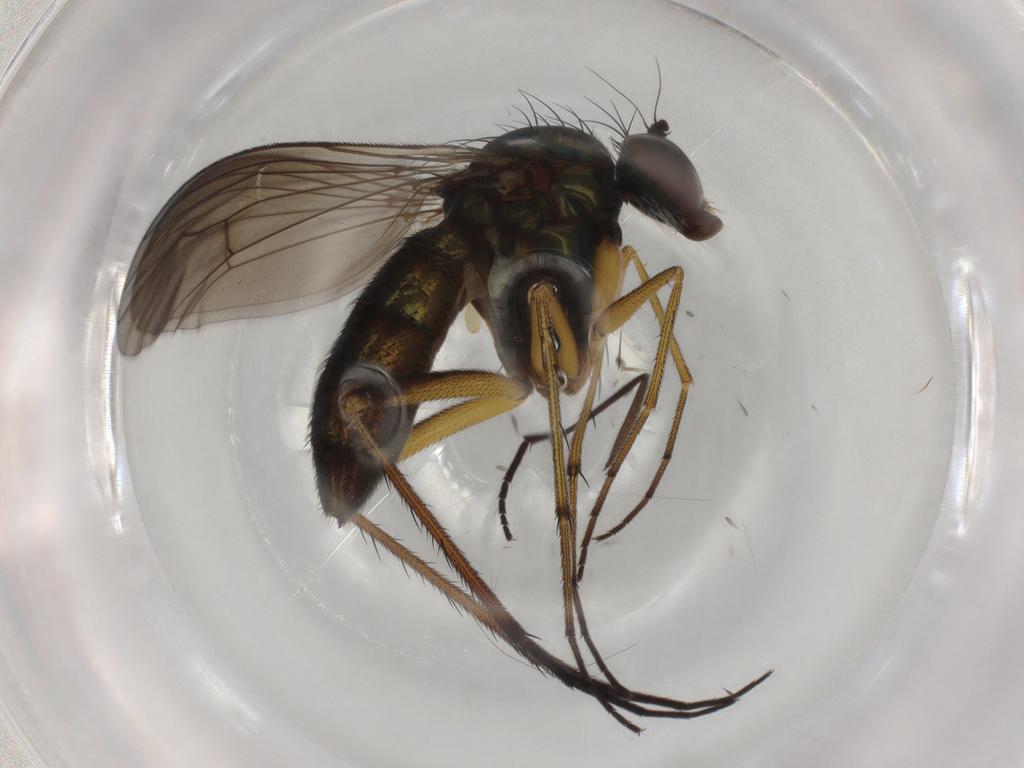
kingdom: Animalia
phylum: Arthropoda
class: Insecta
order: Diptera
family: Dolichopodidae
